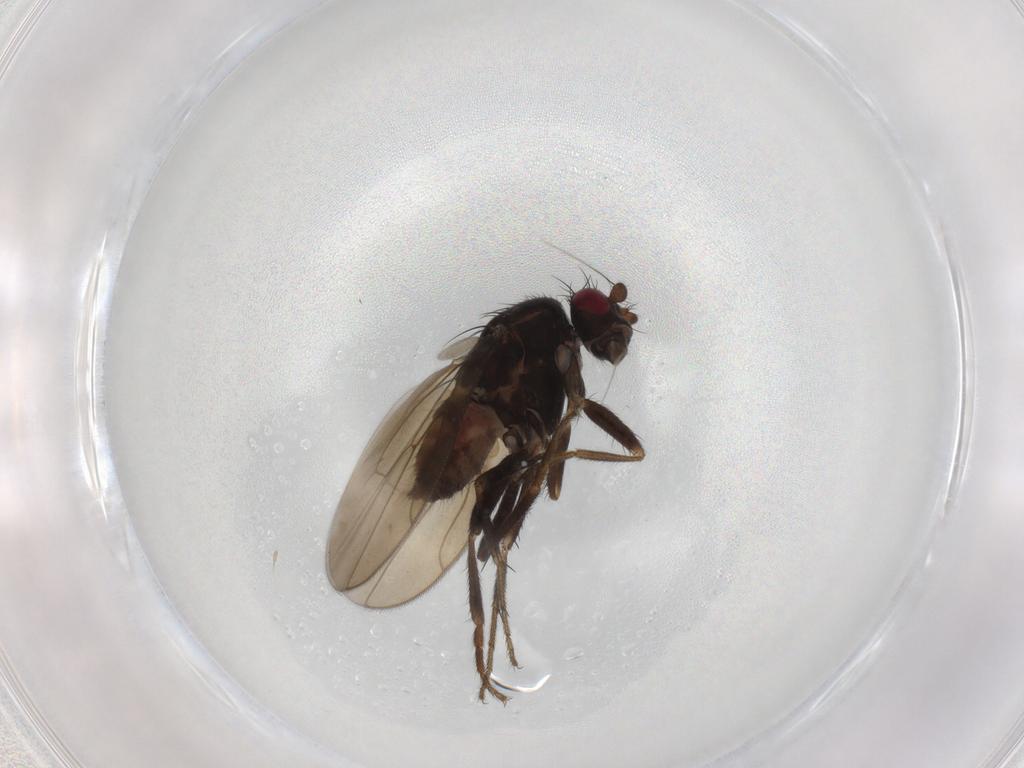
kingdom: Animalia
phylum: Arthropoda
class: Insecta
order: Diptera
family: Sphaeroceridae
